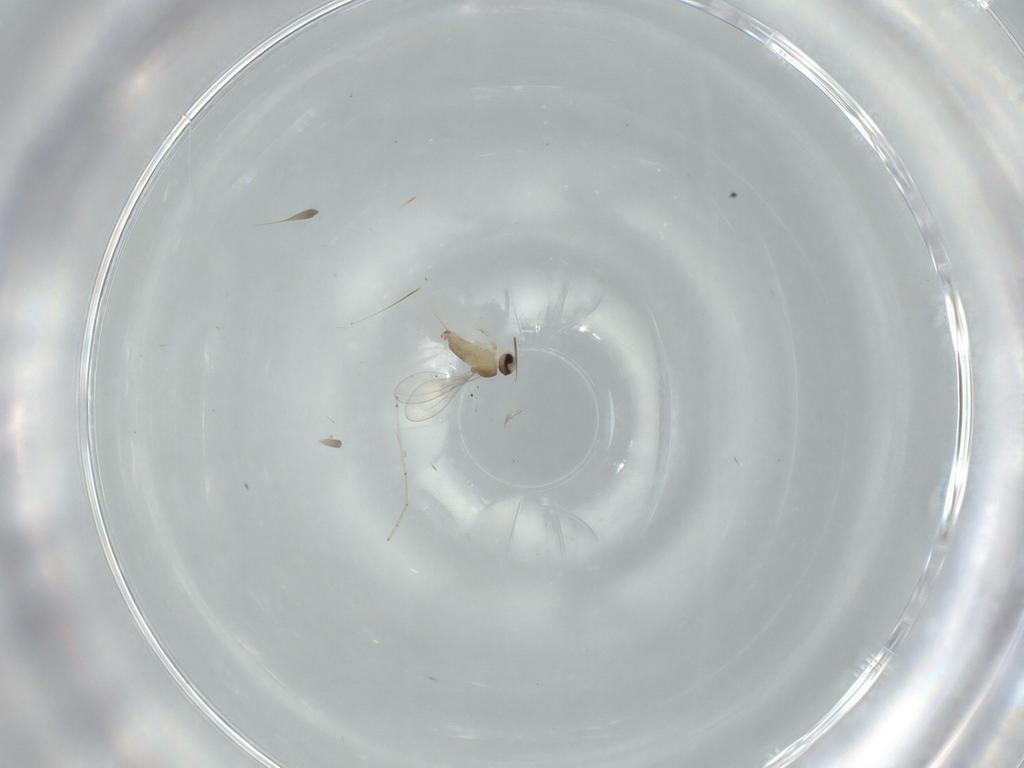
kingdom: Animalia
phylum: Arthropoda
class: Insecta
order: Diptera
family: Cecidomyiidae
